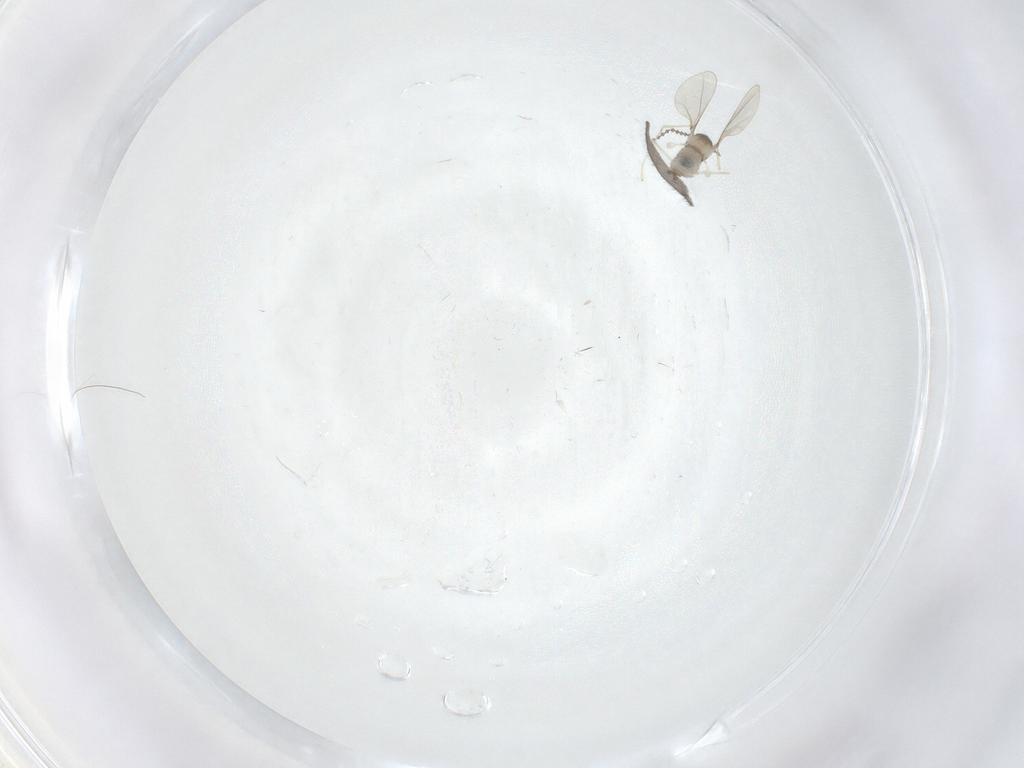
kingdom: Animalia
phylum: Arthropoda
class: Insecta
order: Diptera
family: Cecidomyiidae
